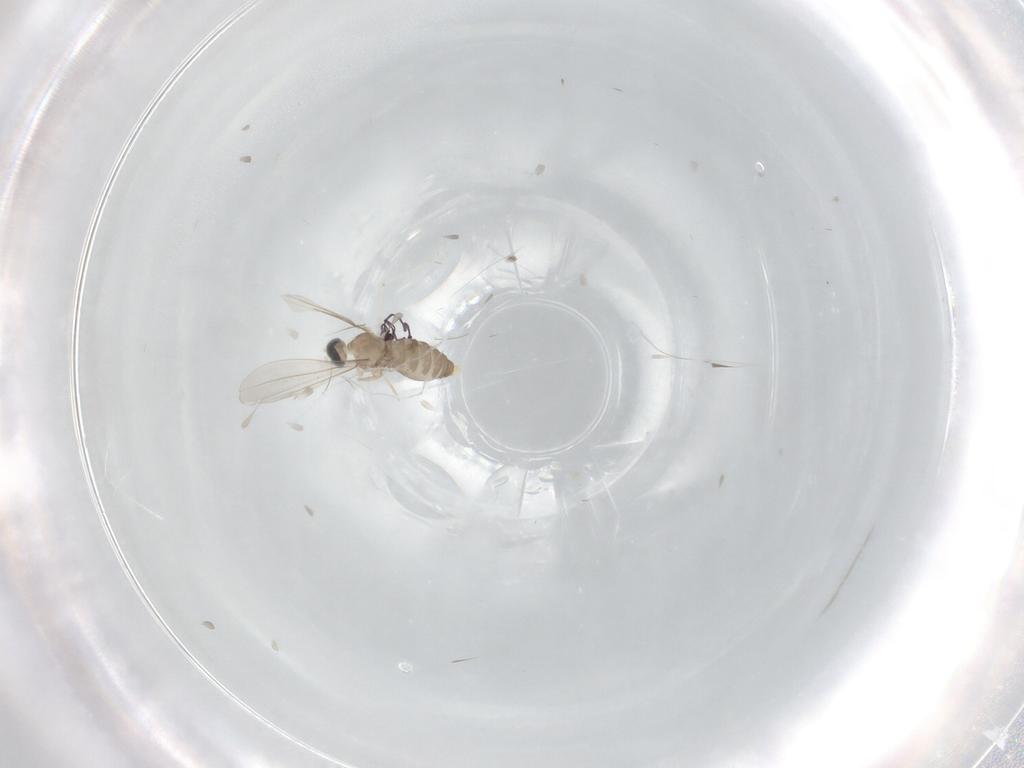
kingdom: Animalia
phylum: Arthropoda
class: Insecta
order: Diptera
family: Cecidomyiidae
